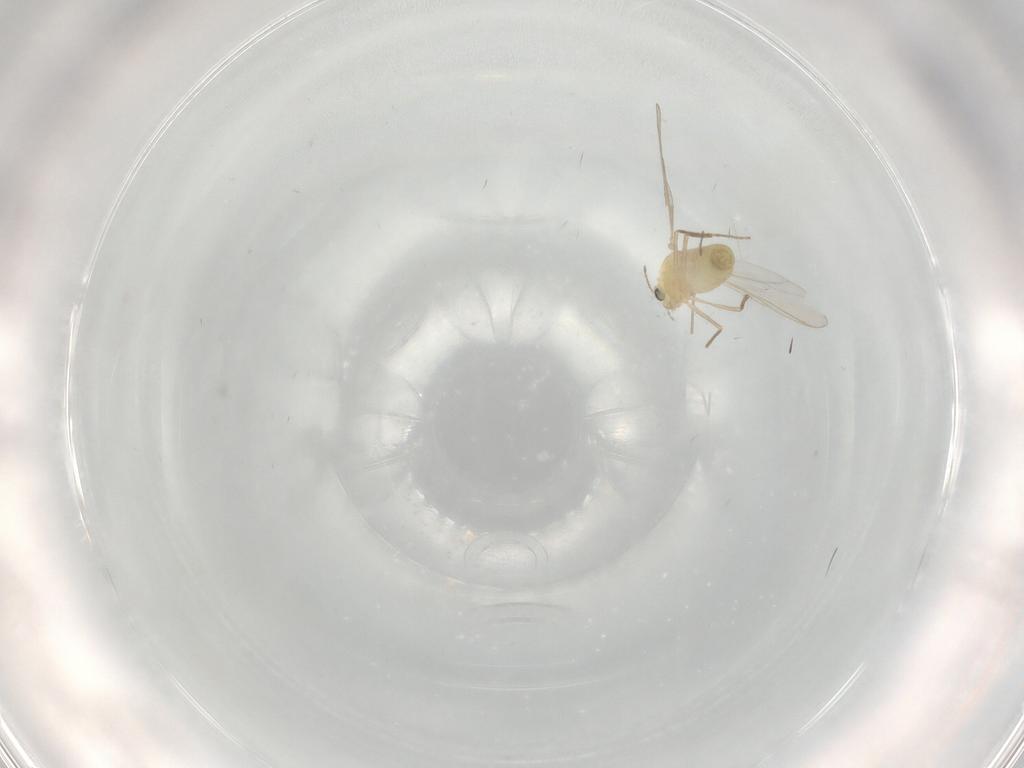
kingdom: Animalia
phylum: Arthropoda
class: Insecta
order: Diptera
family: Chironomidae
